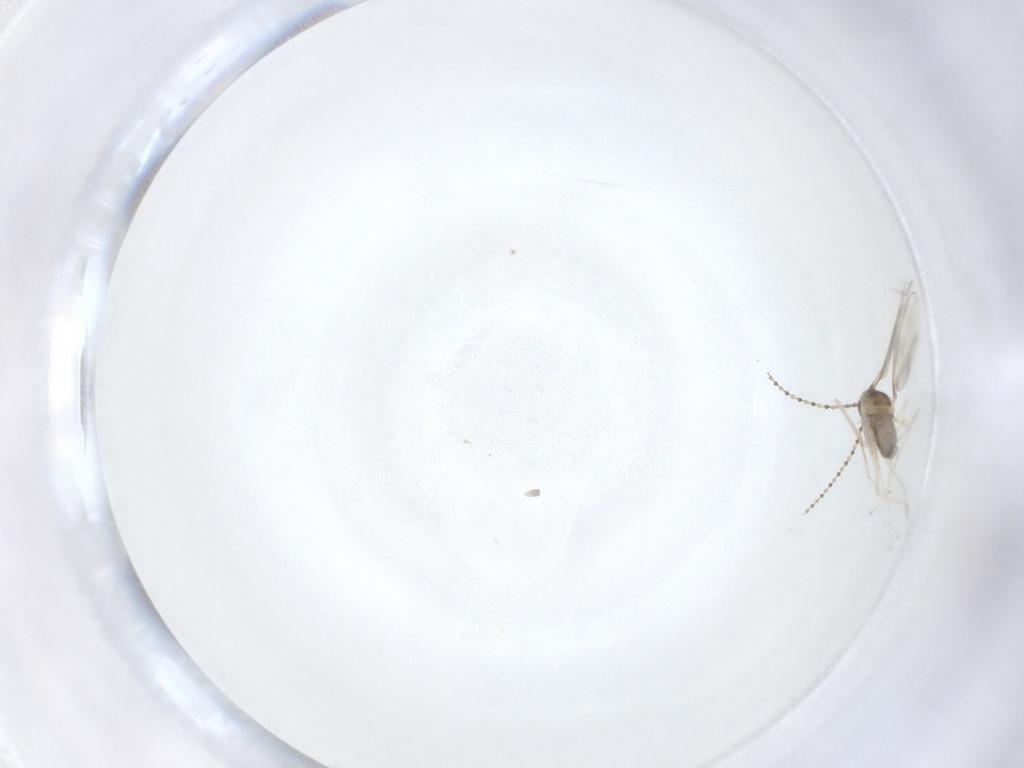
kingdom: Animalia
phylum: Arthropoda
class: Insecta
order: Diptera
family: Cecidomyiidae
